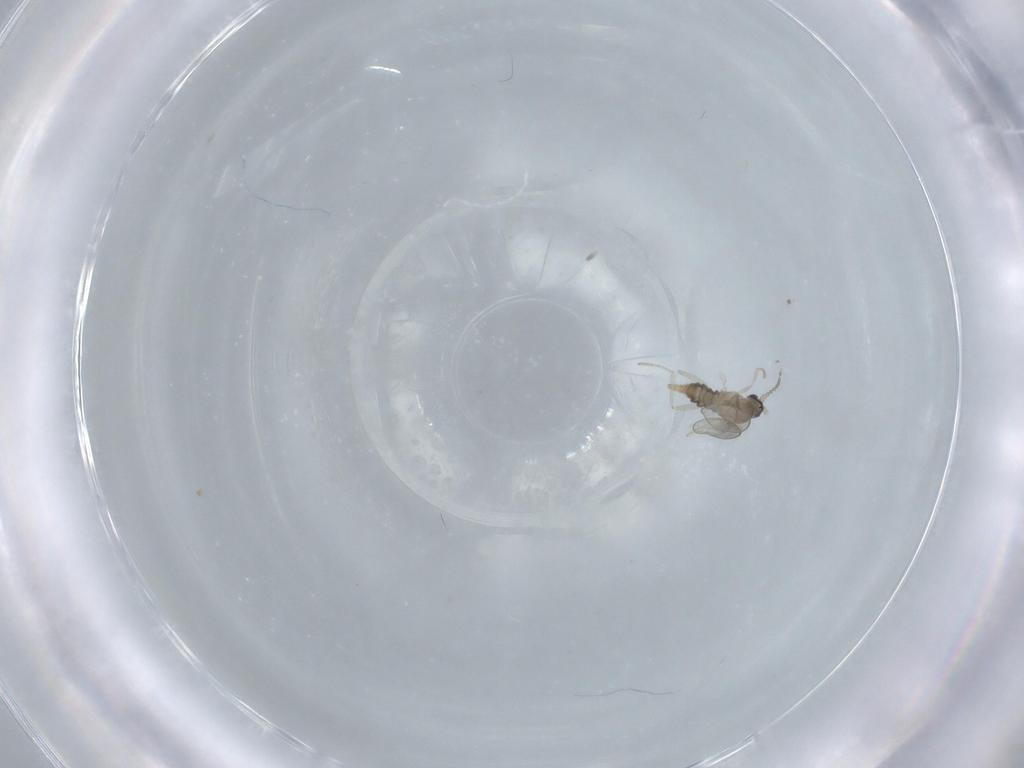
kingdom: Animalia
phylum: Arthropoda
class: Insecta
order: Diptera
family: Cecidomyiidae
